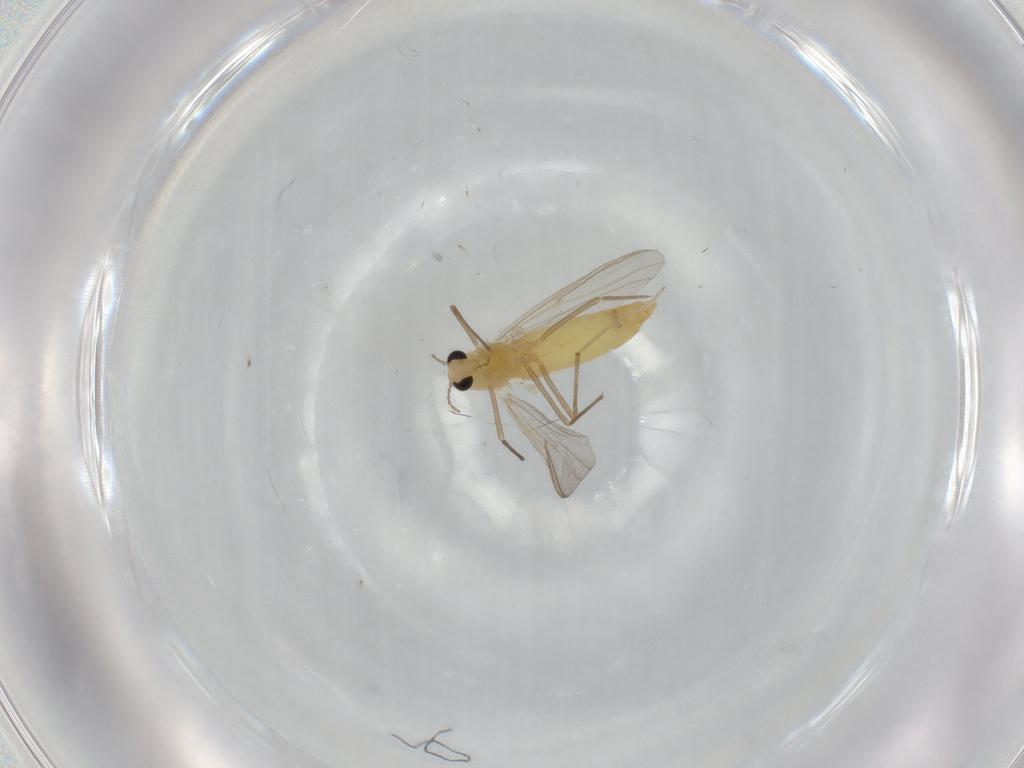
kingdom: Animalia
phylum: Arthropoda
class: Insecta
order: Diptera
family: Chironomidae
